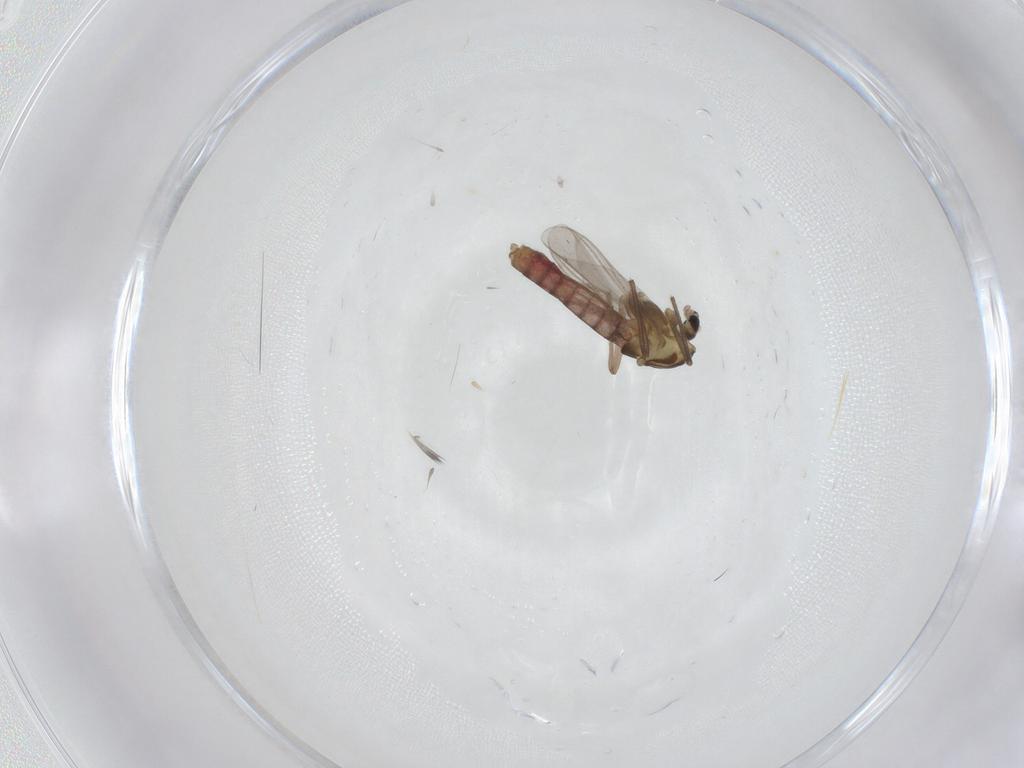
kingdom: Animalia
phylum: Arthropoda
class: Insecta
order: Diptera
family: Chironomidae
